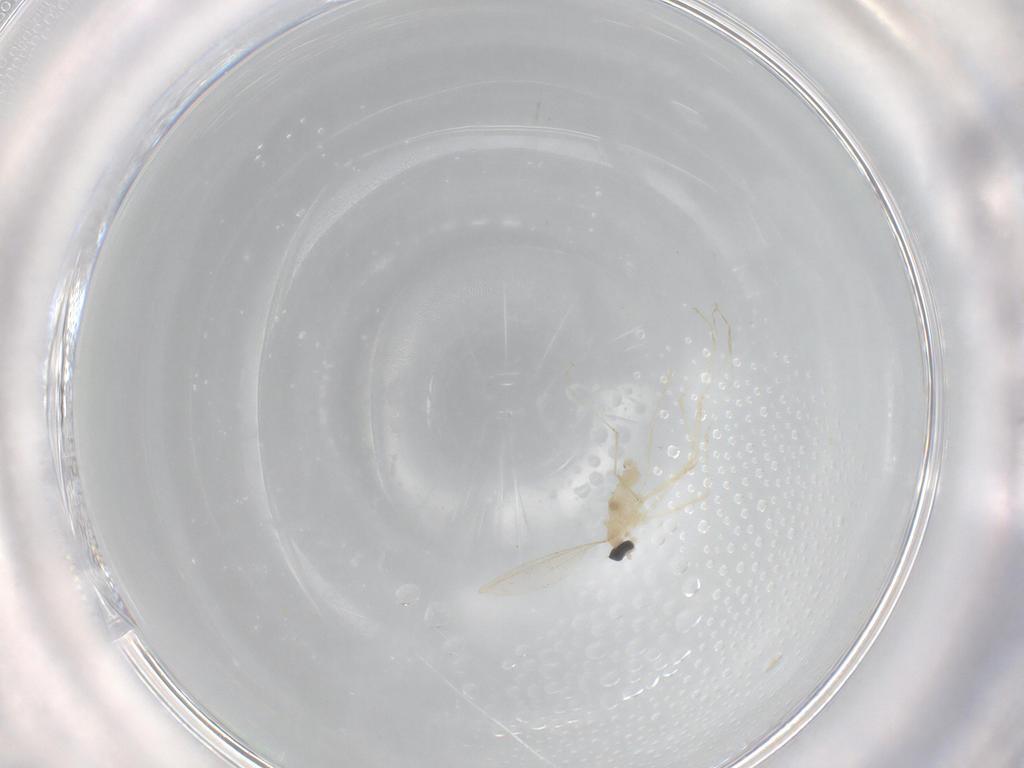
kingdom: Animalia
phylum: Arthropoda
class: Insecta
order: Diptera
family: Cecidomyiidae
